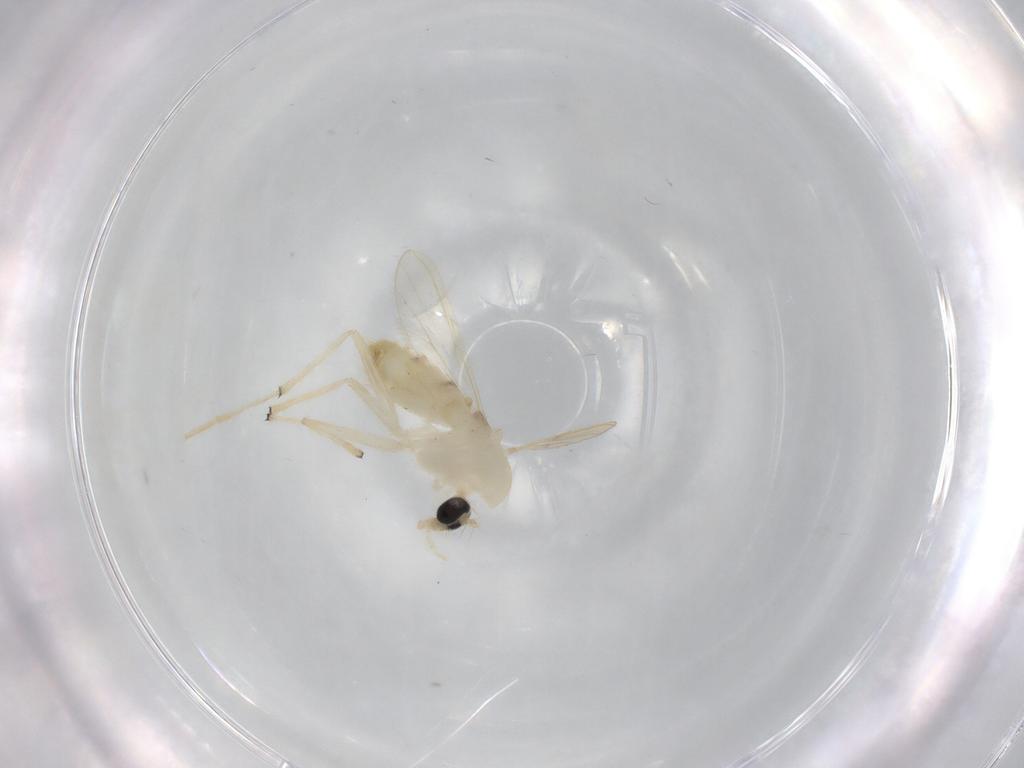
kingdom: Animalia
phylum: Arthropoda
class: Insecta
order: Diptera
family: Chironomidae
